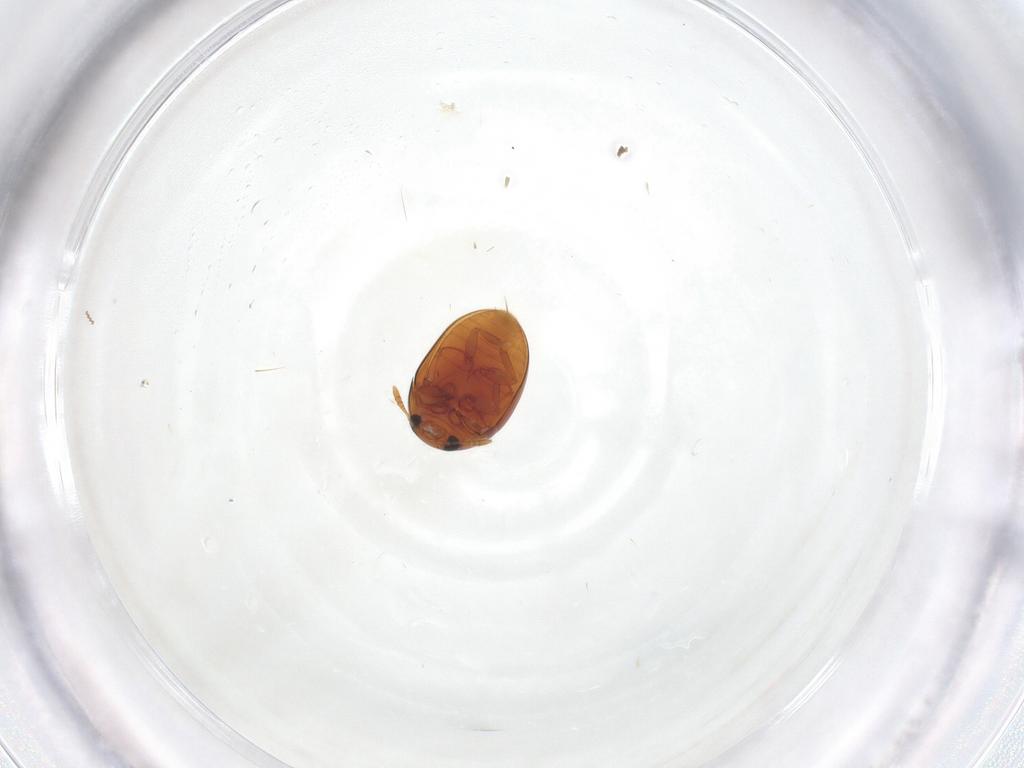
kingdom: Animalia
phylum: Arthropoda
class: Insecta
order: Coleoptera
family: Phalacridae
